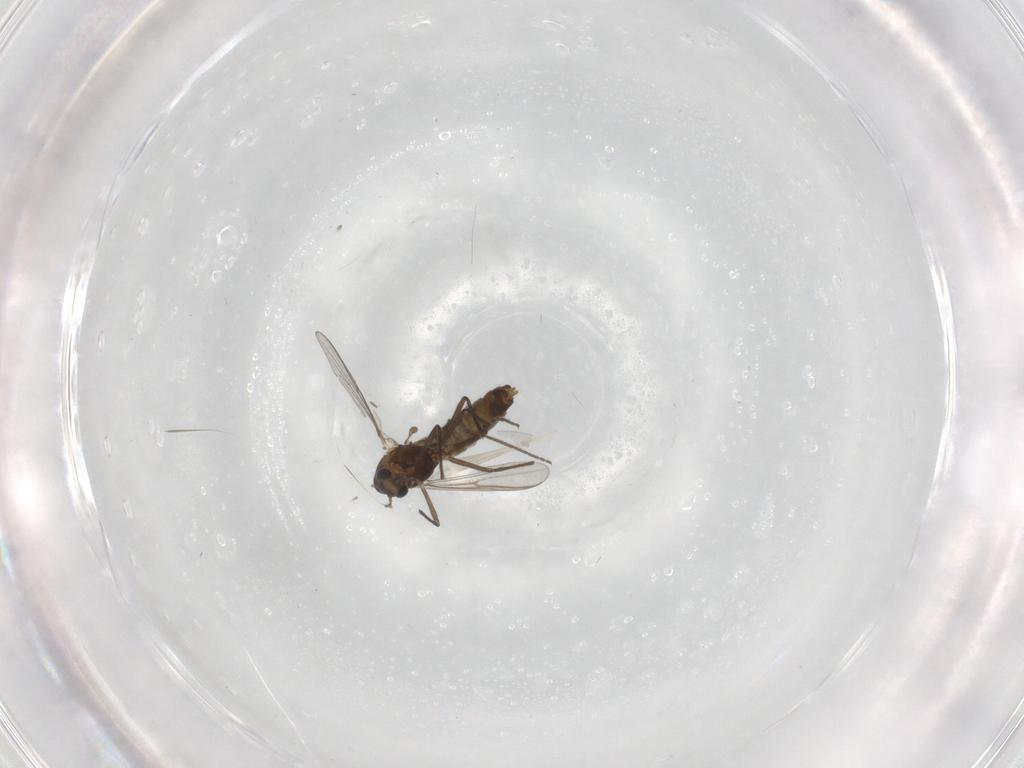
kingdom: Animalia
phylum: Arthropoda
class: Insecta
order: Diptera
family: Chironomidae
